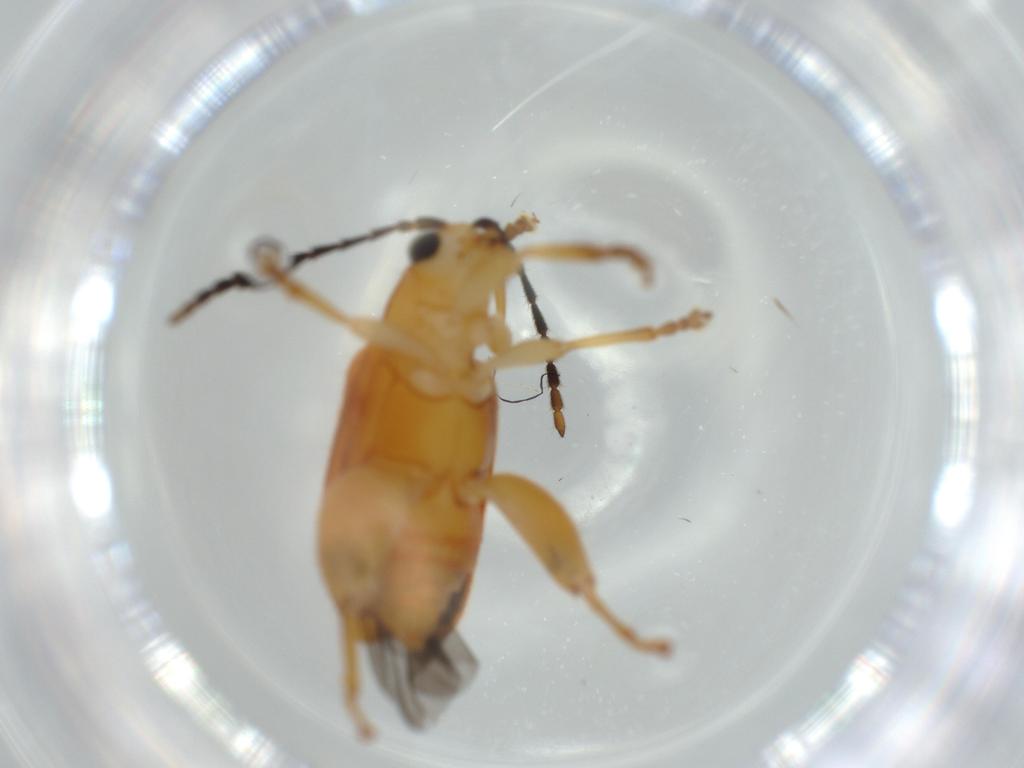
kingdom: Animalia
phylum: Arthropoda
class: Insecta
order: Coleoptera
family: Chrysomelidae
